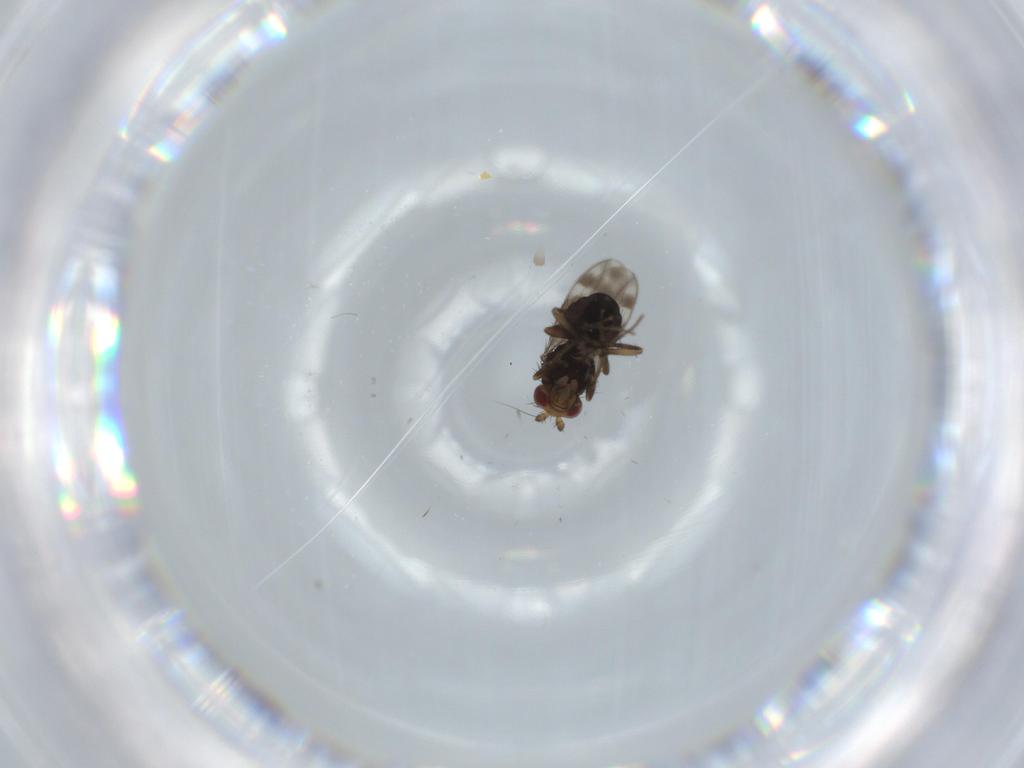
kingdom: Animalia
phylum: Arthropoda
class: Insecta
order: Diptera
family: Sphaeroceridae
